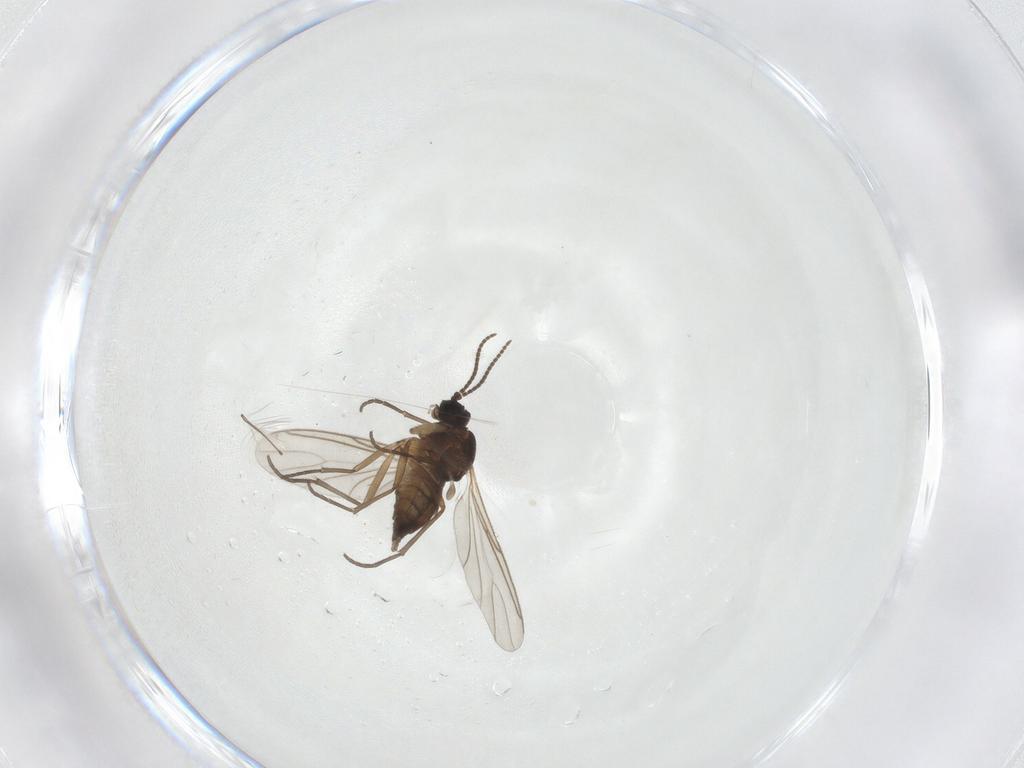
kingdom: Animalia
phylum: Arthropoda
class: Insecta
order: Diptera
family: Sciaridae
